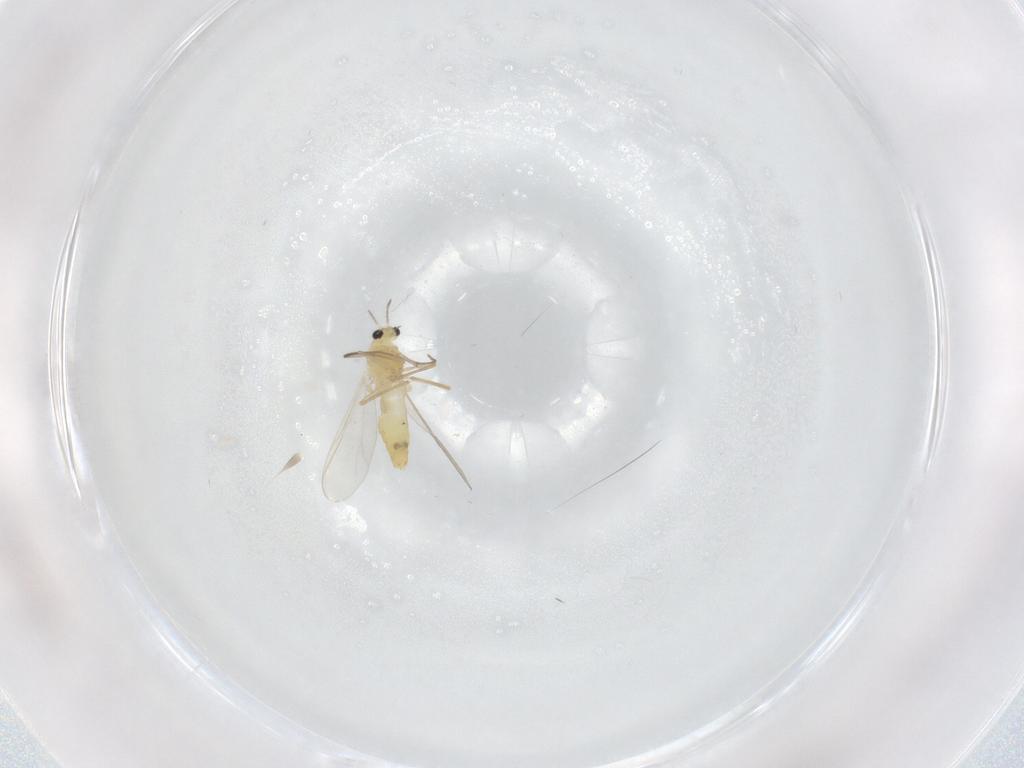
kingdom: Animalia
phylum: Arthropoda
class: Insecta
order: Diptera
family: Chironomidae
